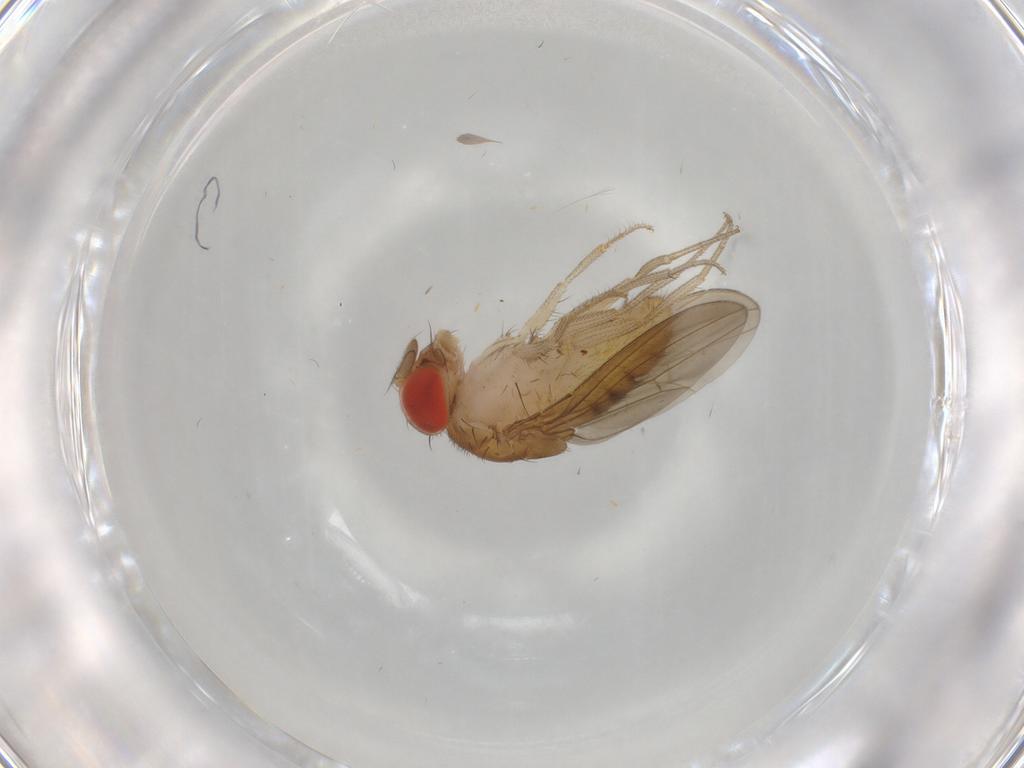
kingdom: Animalia
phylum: Arthropoda
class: Insecta
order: Diptera
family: Drosophilidae
